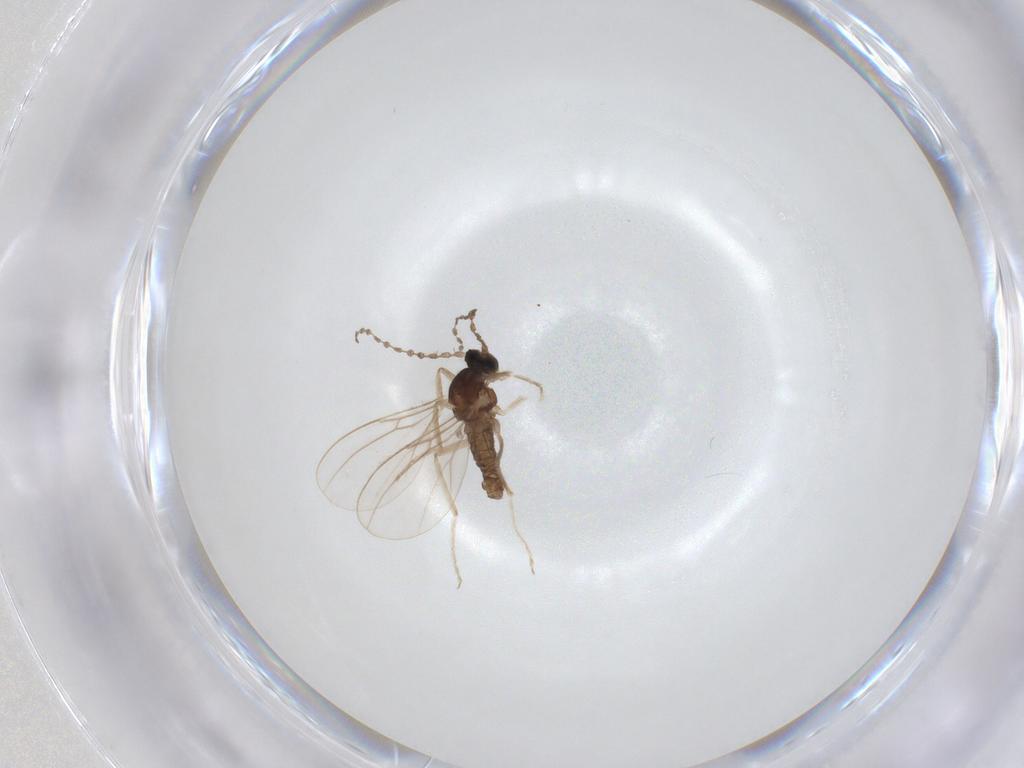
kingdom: Animalia
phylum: Arthropoda
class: Insecta
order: Diptera
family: Cecidomyiidae
